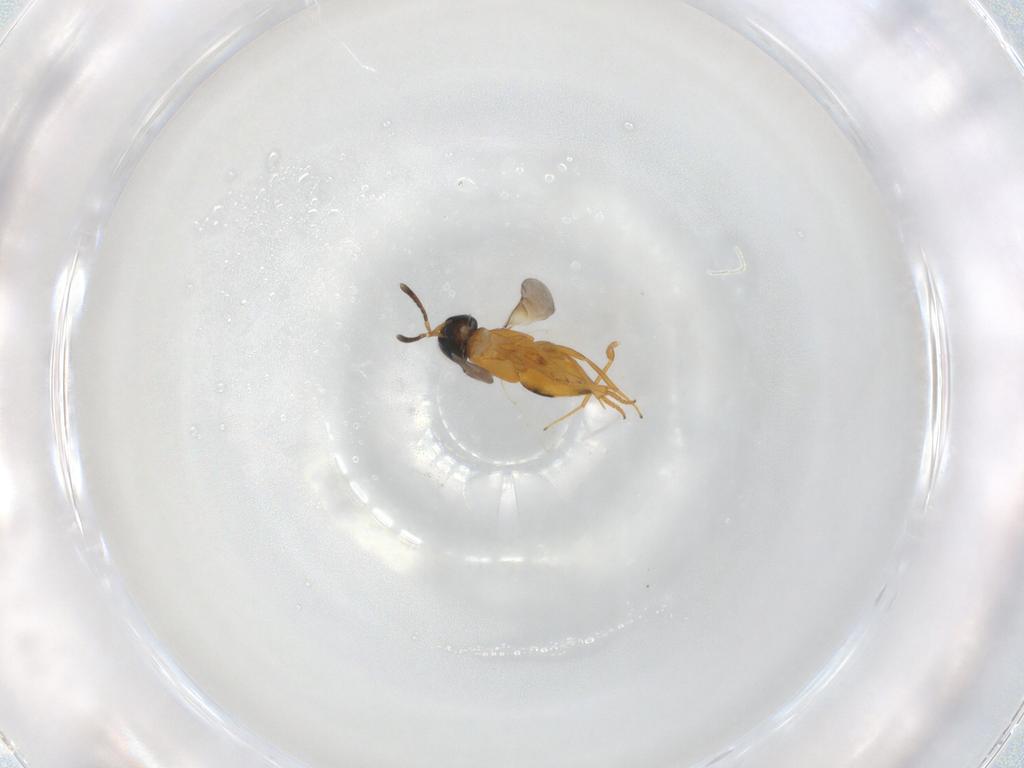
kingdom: Animalia
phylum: Arthropoda
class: Insecta
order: Hymenoptera
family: Encyrtidae
